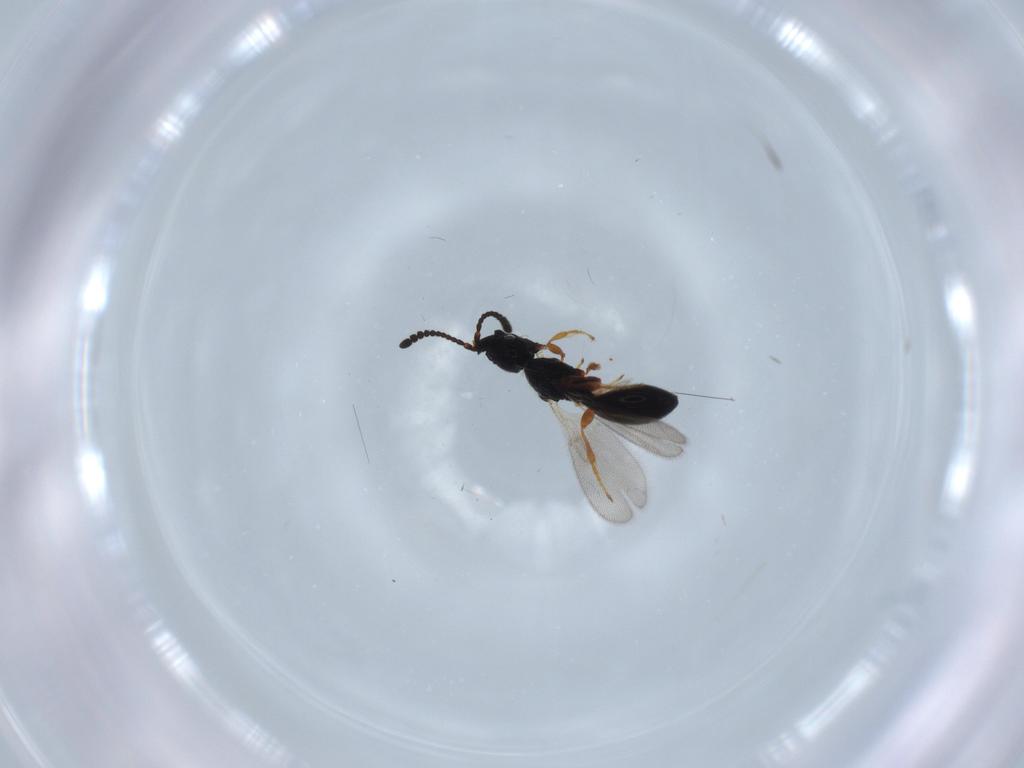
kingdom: Animalia
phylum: Arthropoda
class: Insecta
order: Hymenoptera
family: Diapriidae
